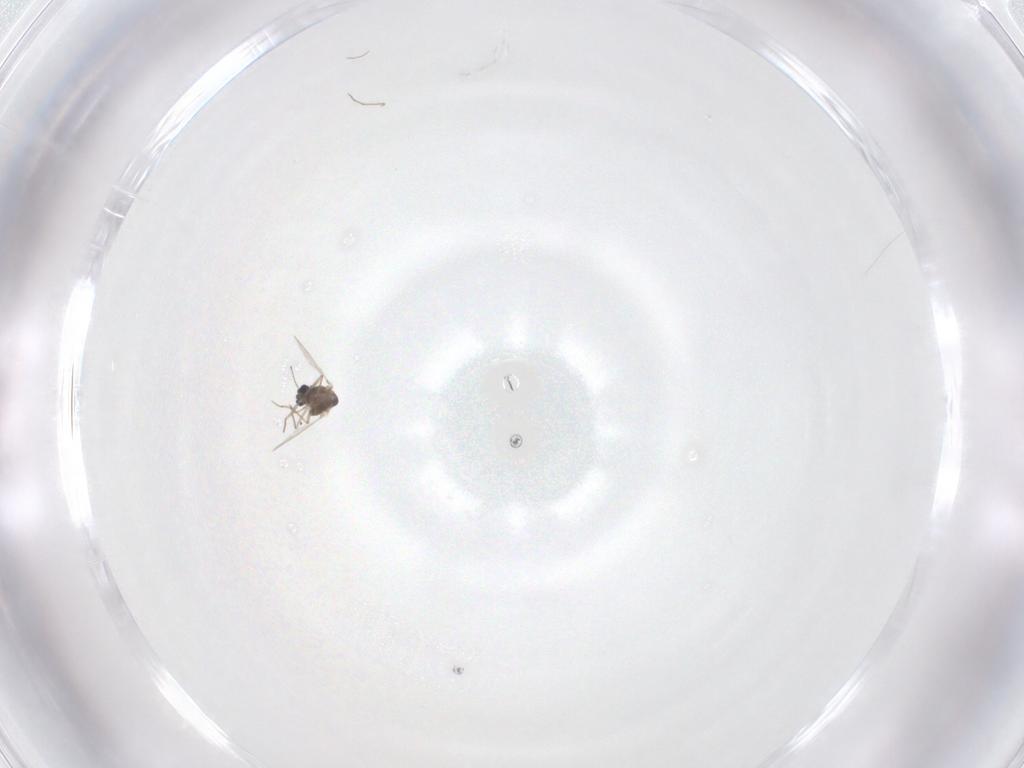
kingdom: Animalia
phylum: Arthropoda
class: Insecta
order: Diptera
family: Chironomidae
